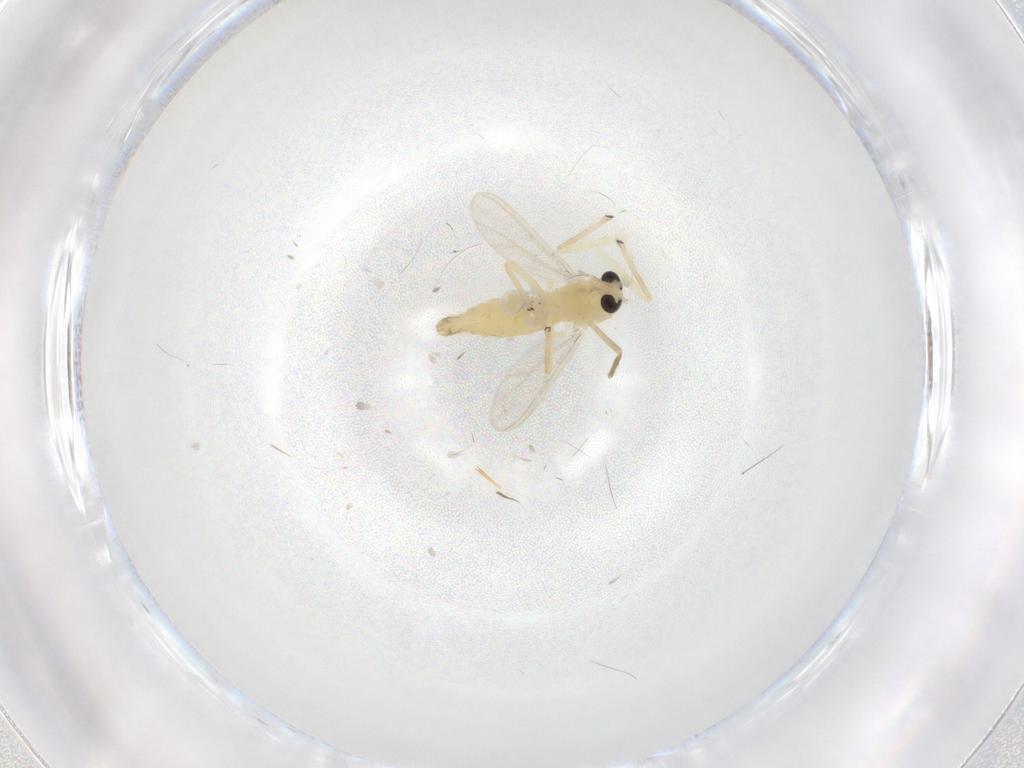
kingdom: Animalia
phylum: Arthropoda
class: Insecta
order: Diptera
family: Chironomidae
